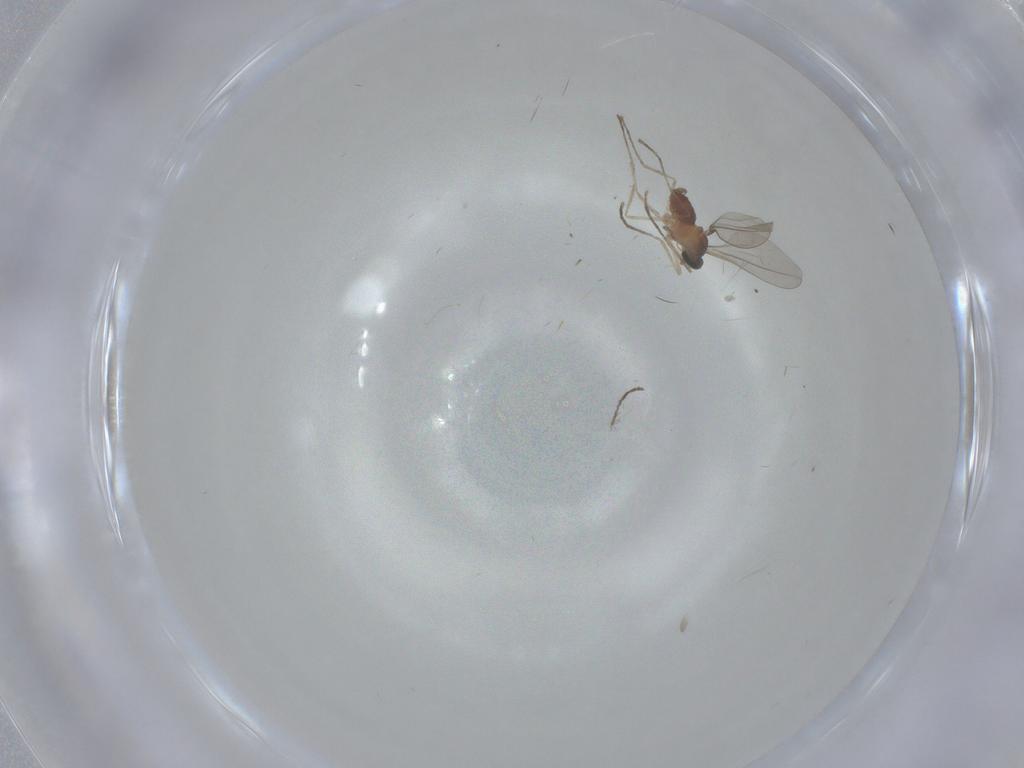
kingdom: Animalia
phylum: Arthropoda
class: Insecta
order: Diptera
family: Cecidomyiidae
